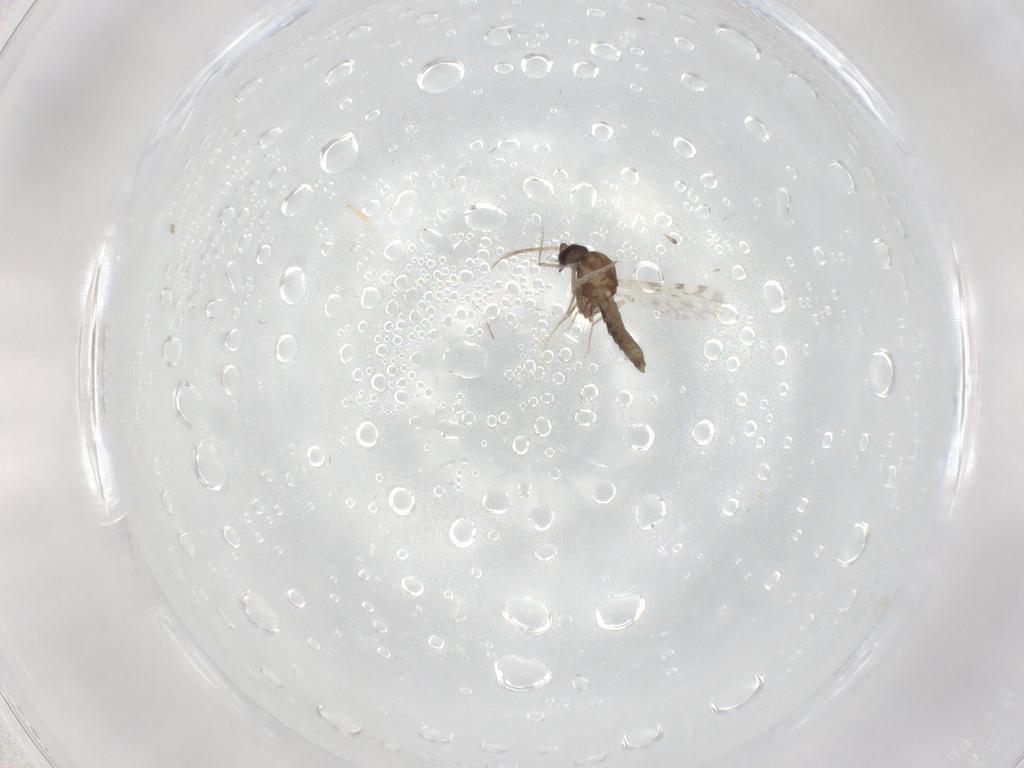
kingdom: Animalia
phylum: Arthropoda
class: Insecta
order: Diptera
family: Ceratopogonidae
